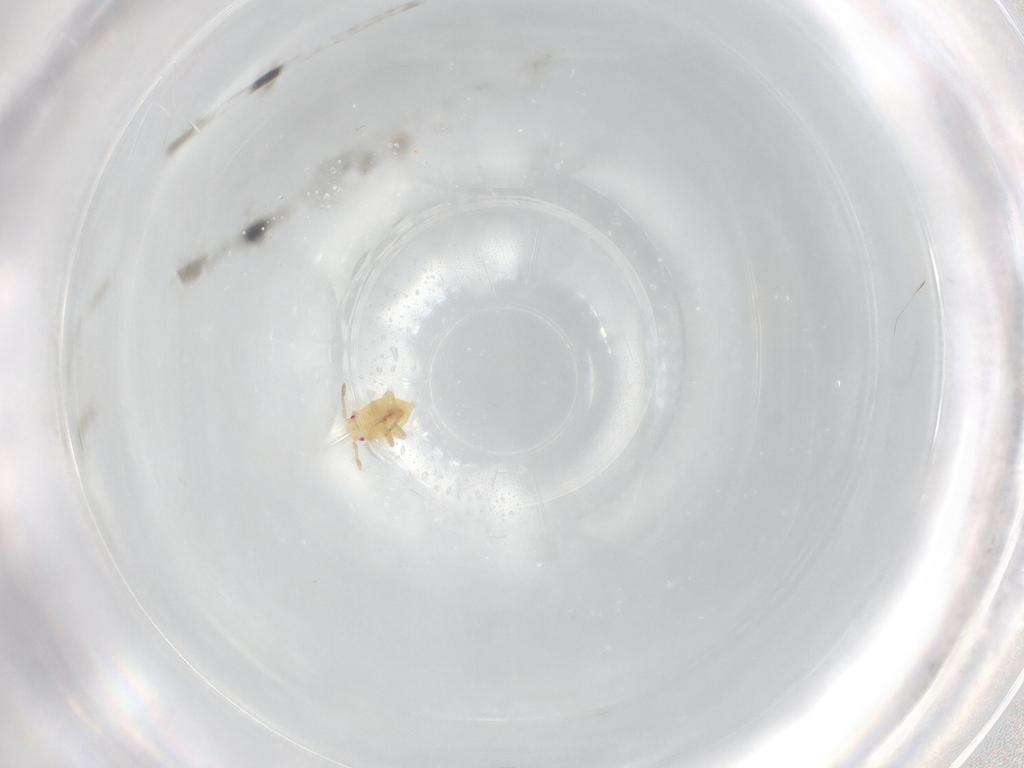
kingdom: Animalia
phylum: Arthropoda
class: Insecta
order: Hemiptera
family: Miridae
